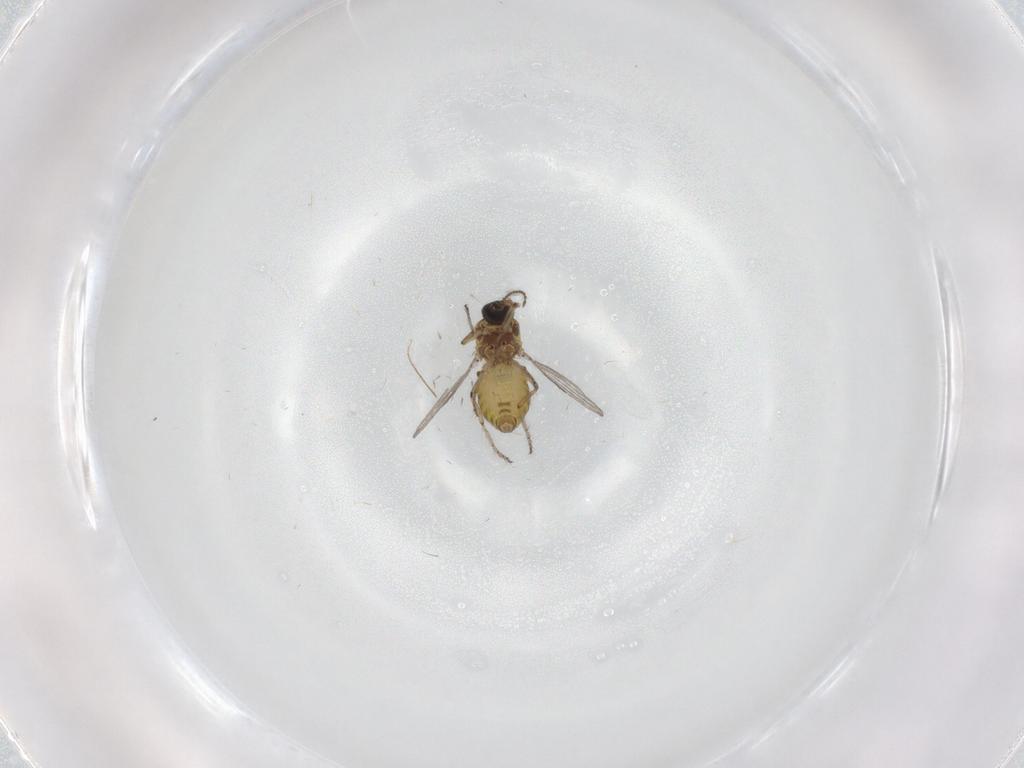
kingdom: Animalia
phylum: Arthropoda
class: Insecta
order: Diptera
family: Ceratopogonidae
